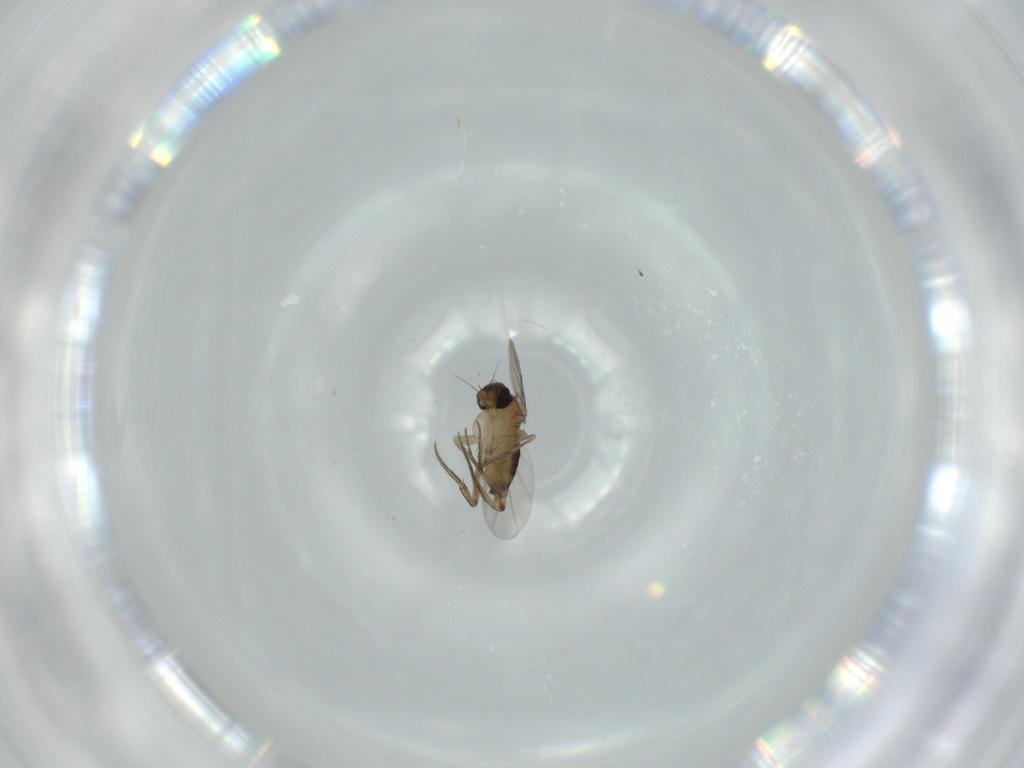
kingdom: Animalia
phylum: Arthropoda
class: Insecta
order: Diptera
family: Phoridae
